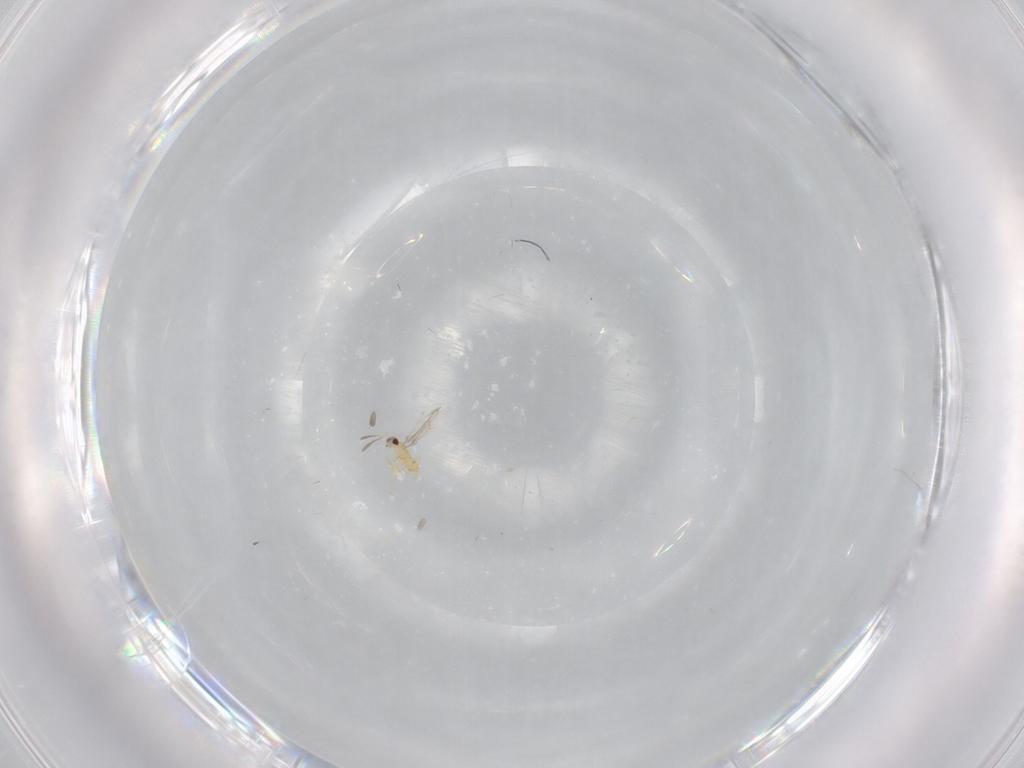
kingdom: Animalia
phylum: Arthropoda
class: Insecta
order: Hymenoptera
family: Mymaridae
